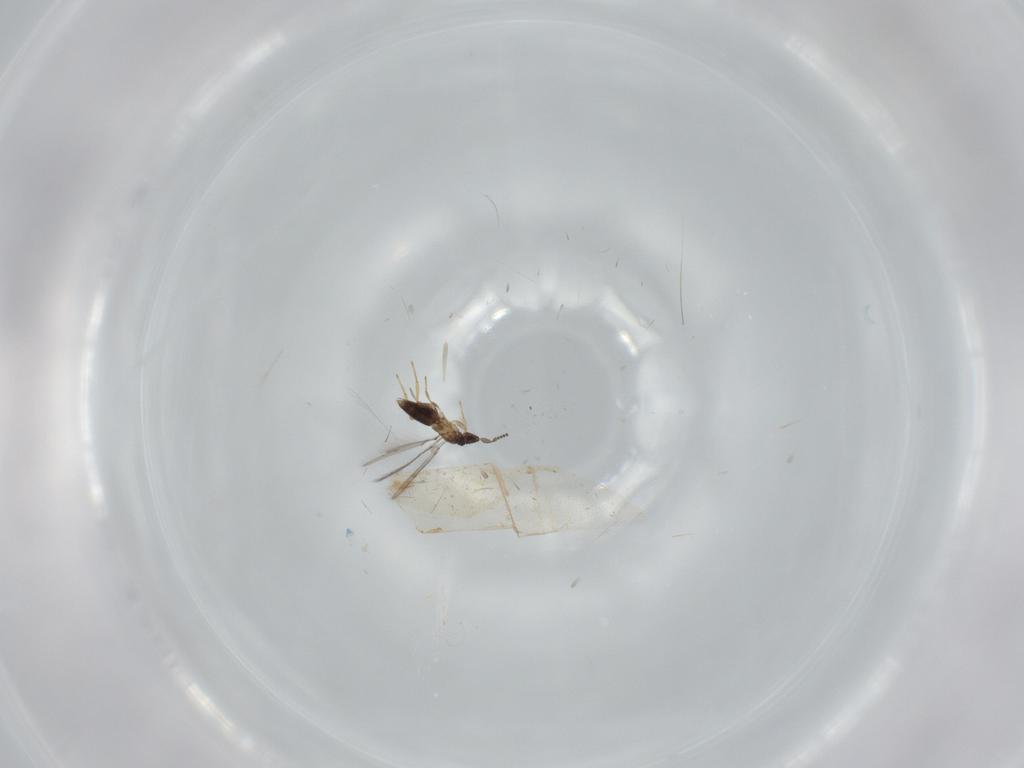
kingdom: Animalia
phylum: Arthropoda
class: Insecta
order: Hymenoptera
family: Mymaridae
